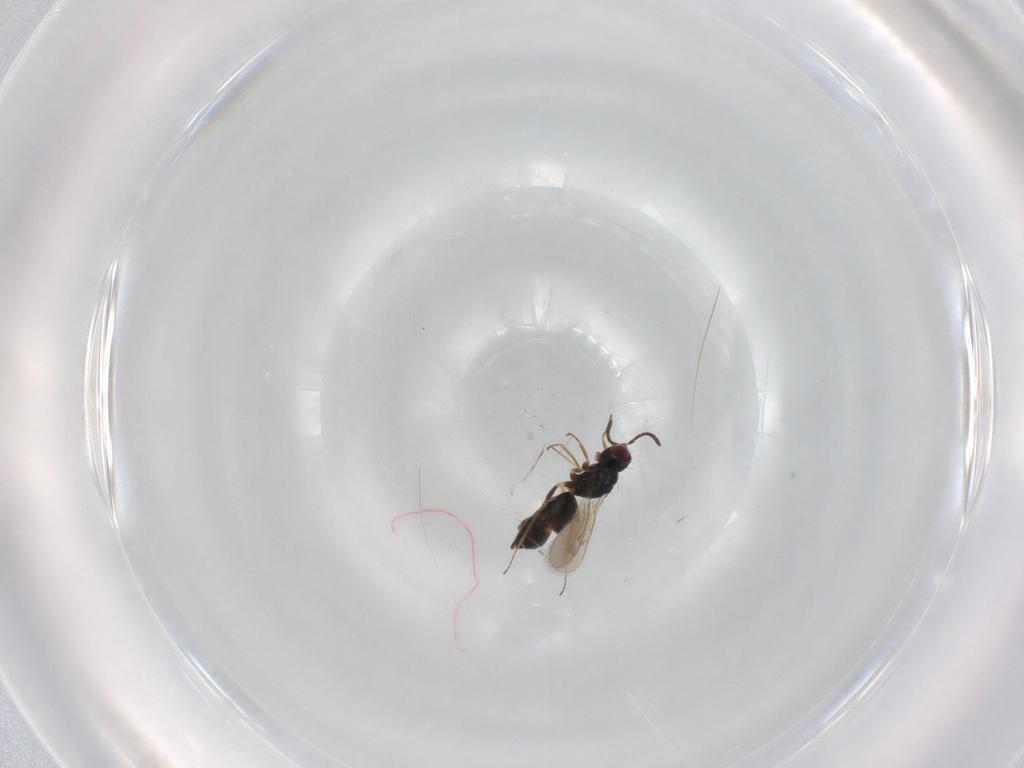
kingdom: Animalia
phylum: Arthropoda
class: Insecta
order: Hymenoptera
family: Tetracampidae
